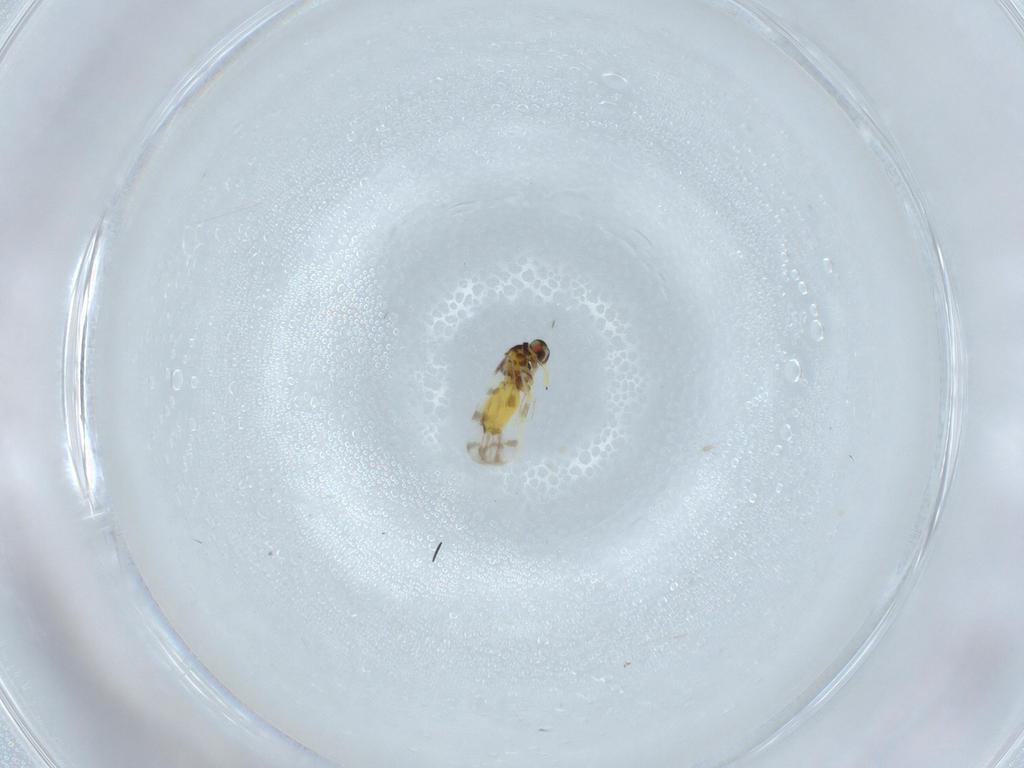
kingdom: Animalia
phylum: Arthropoda
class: Insecta
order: Hemiptera
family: Aleyrodidae
